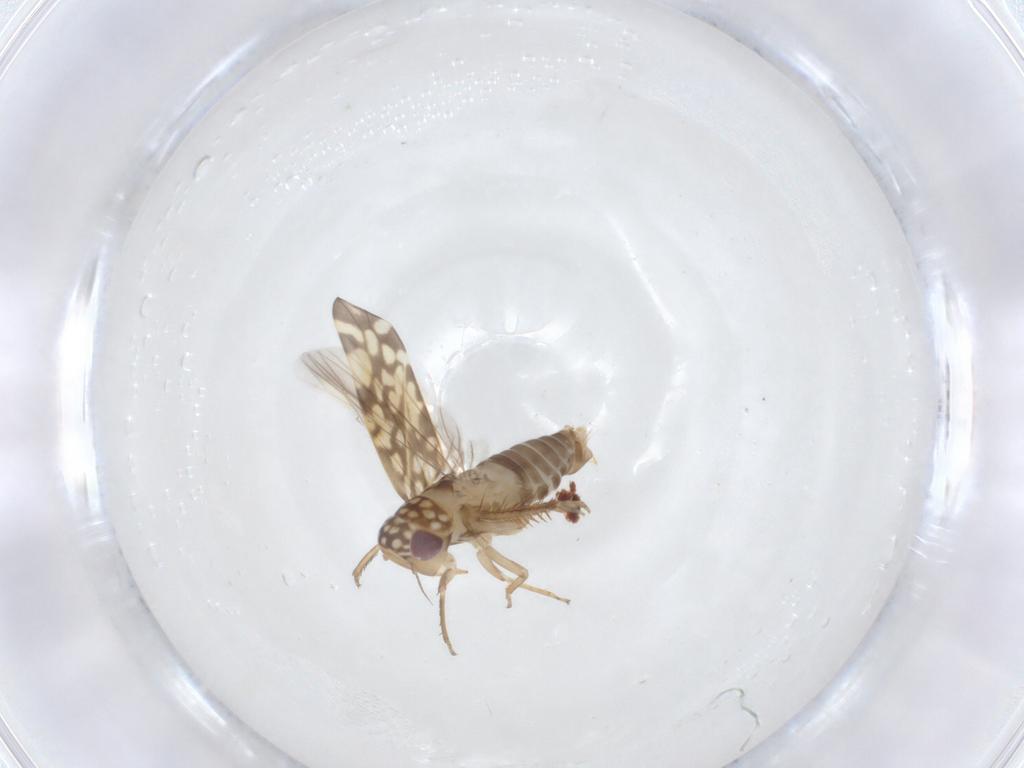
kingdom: Animalia
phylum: Arthropoda
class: Insecta
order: Hemiptera
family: Cicadellidae
